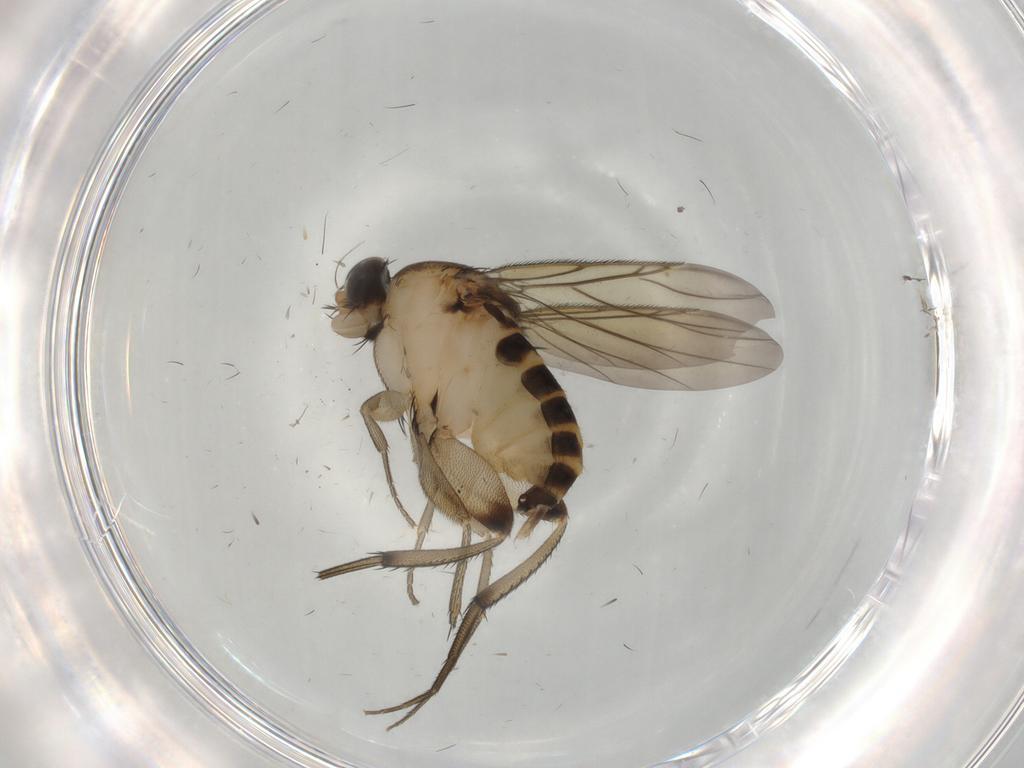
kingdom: Animalia
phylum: Arthropoda
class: Insecta
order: Diptera
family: Phoridae
